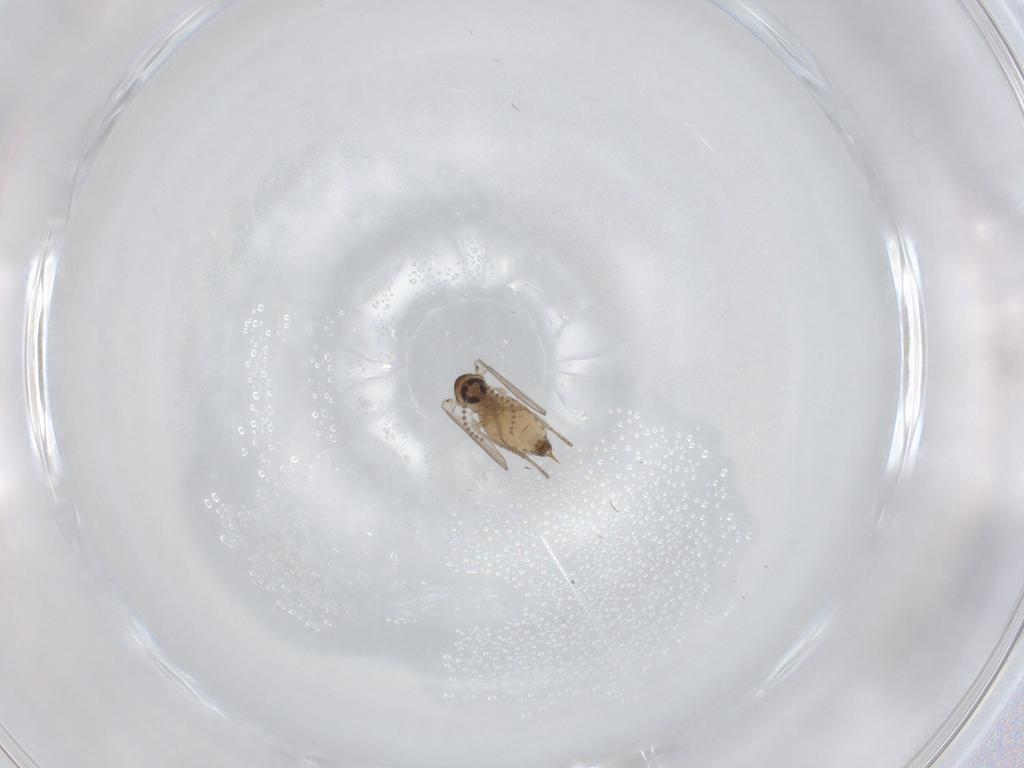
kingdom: Animalia
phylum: Arthropoda
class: Insecta
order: Diptera
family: Psychodidae
